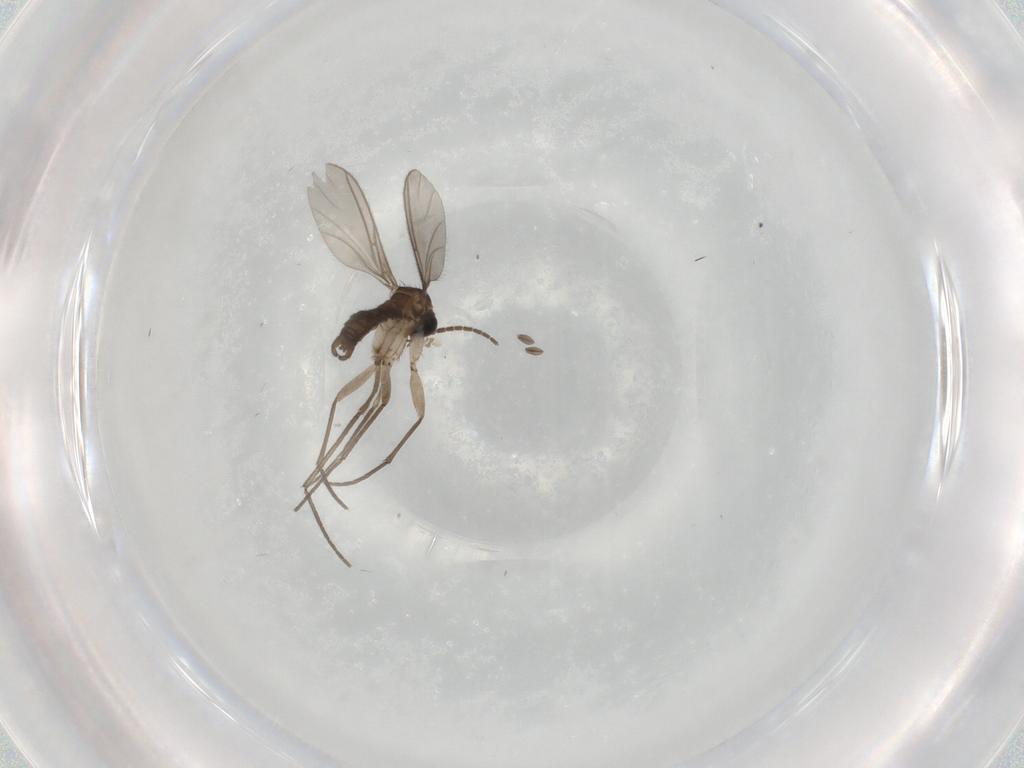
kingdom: Animalia
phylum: Arthropoda
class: Insecta
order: Diptera
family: Sciaridae
